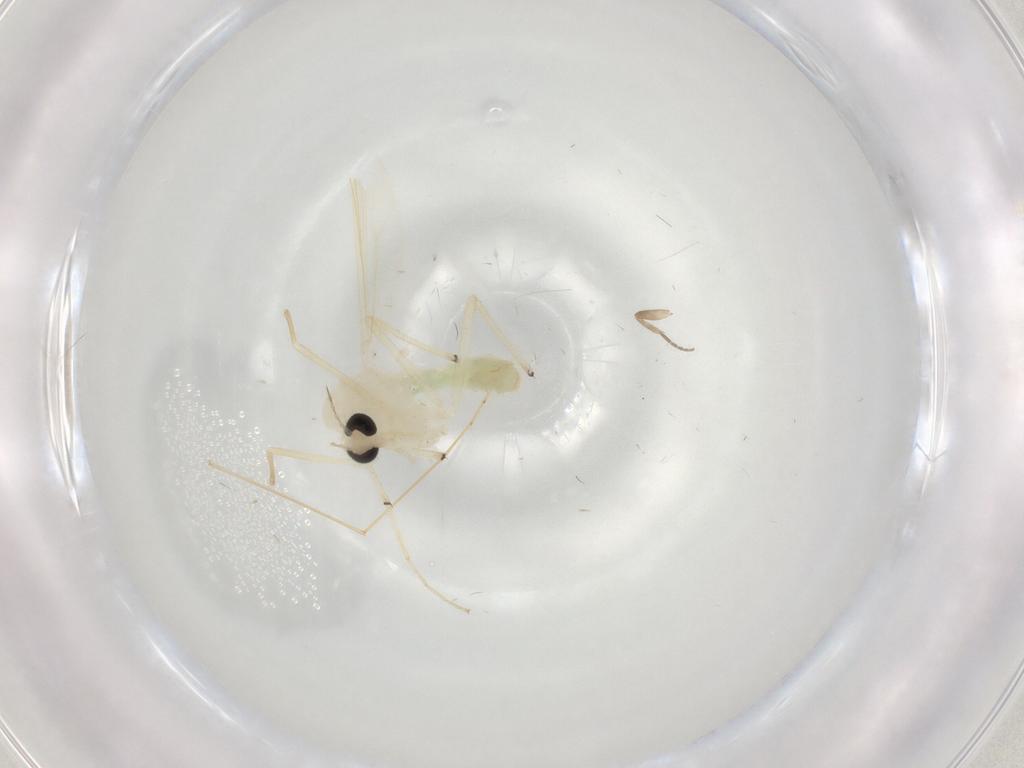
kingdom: Animalia
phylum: Arthropoda
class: Insecta
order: Diptera
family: Chironomidae
